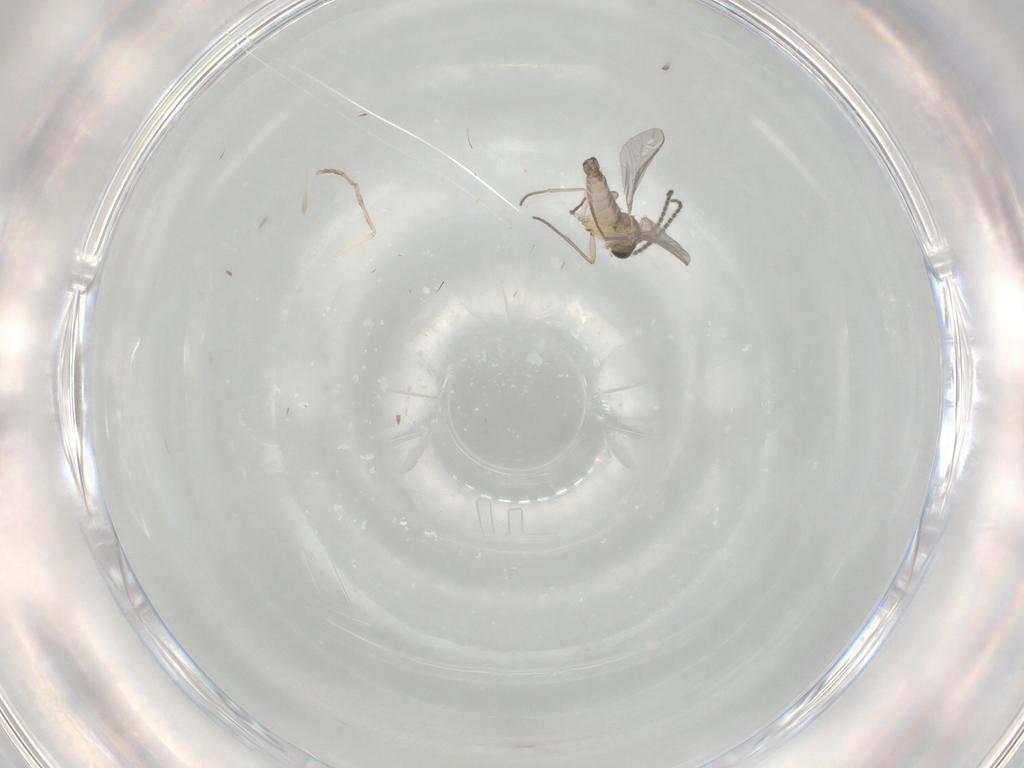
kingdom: Animalia
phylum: Arthropoda
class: Insecta
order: Diptera
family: Sciaridae
